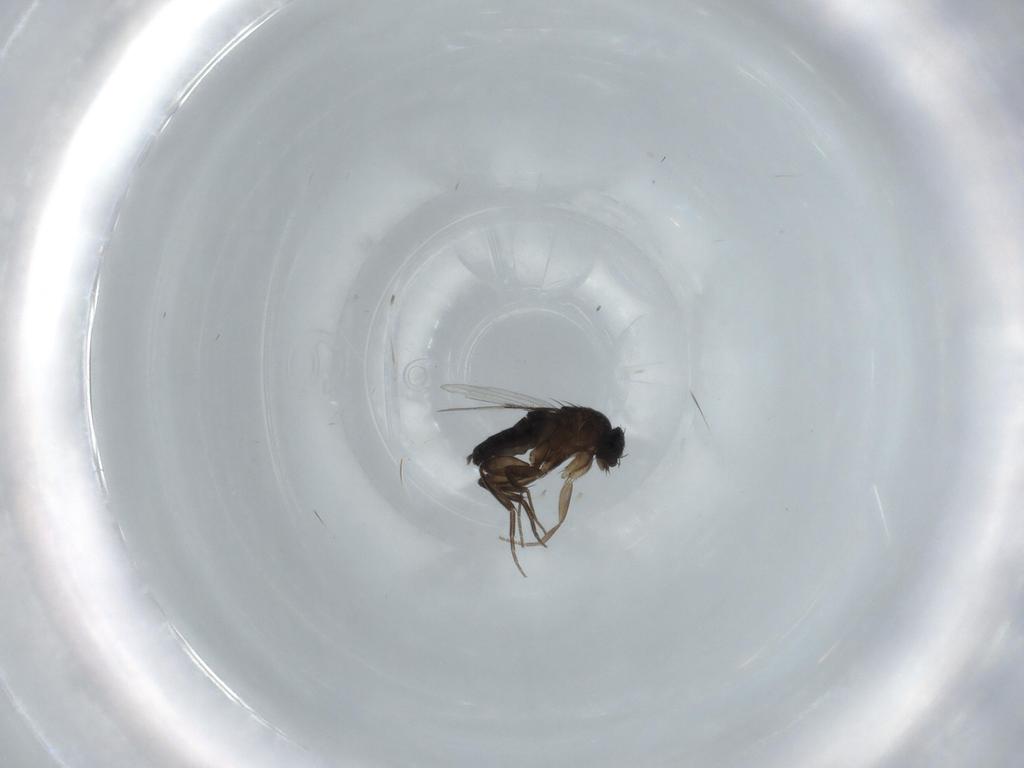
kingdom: Animalia
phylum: Arthropoda
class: Insecta
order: Diptera
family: Phoridae
